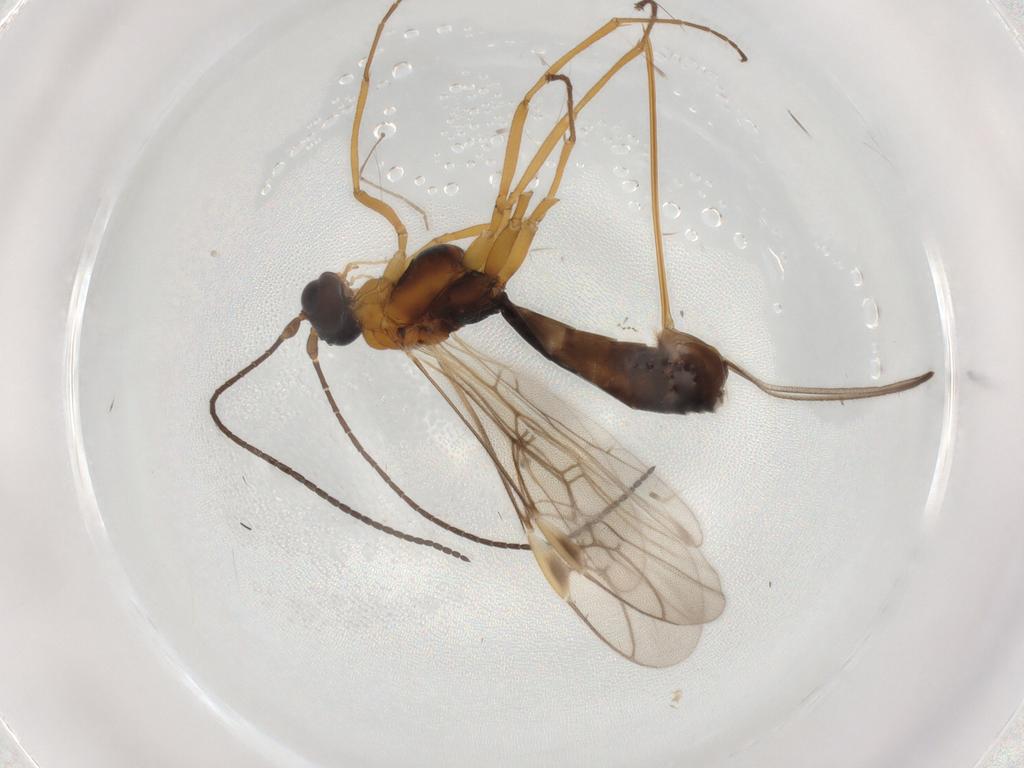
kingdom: Animalia
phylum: Arthropoda
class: Insecta
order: Hymenoptera
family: Braconidae
